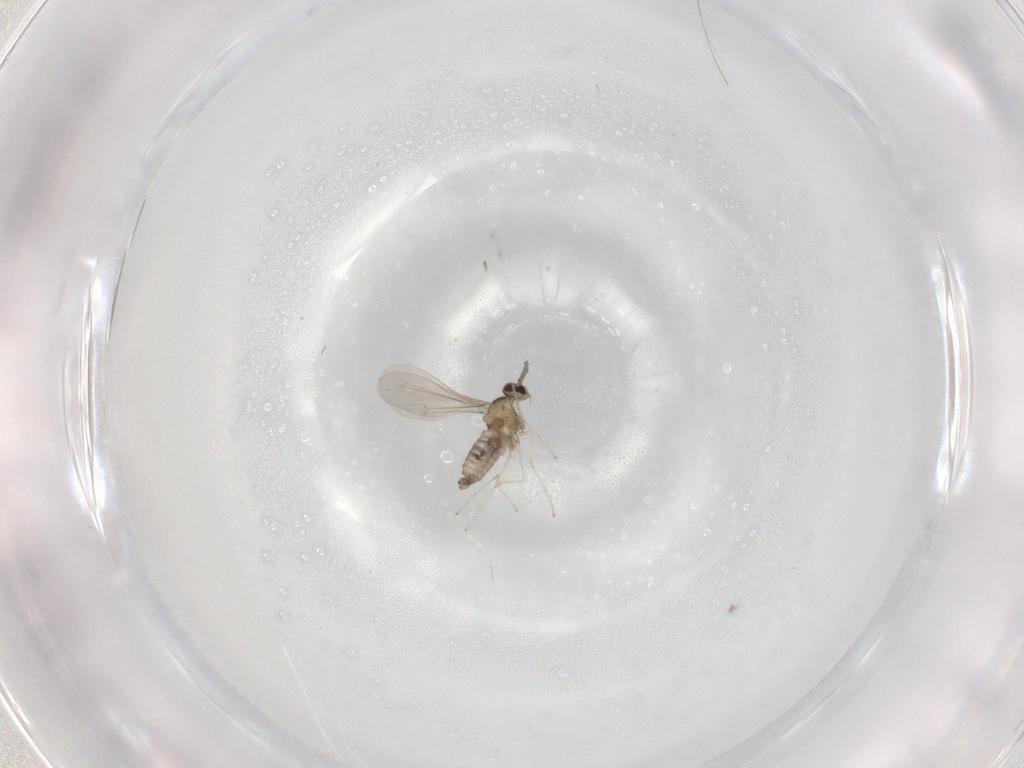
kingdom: Animalia
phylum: Arthropoda
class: Insecta
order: Diptera
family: Cecidomyiidae
